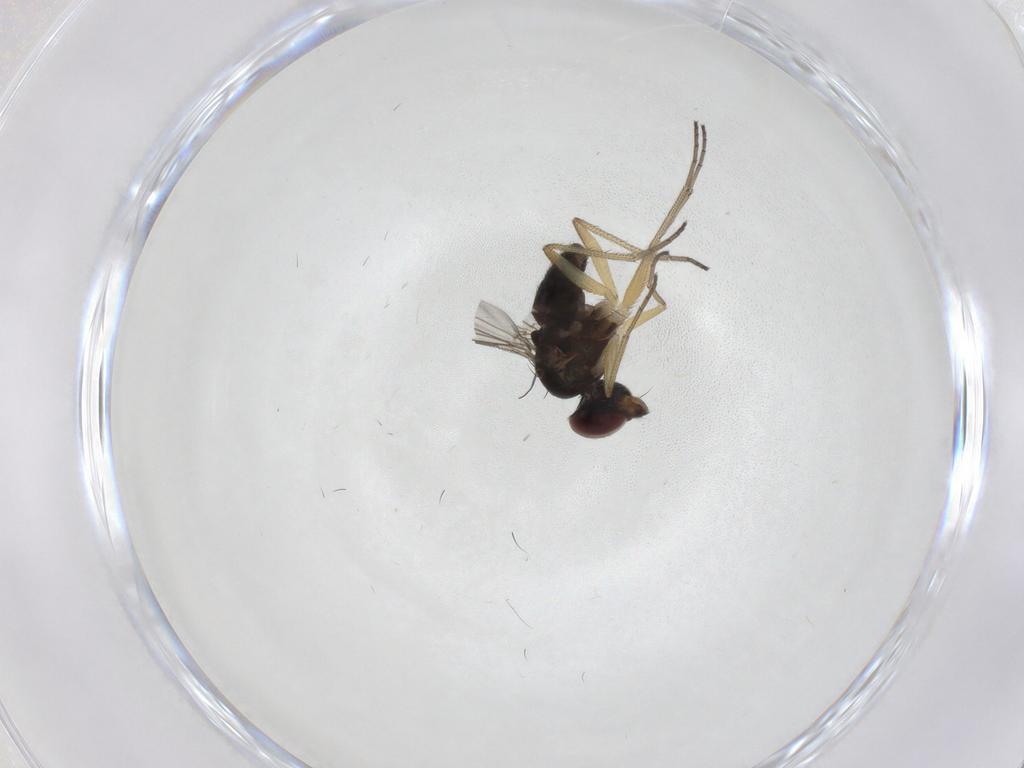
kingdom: Animalia
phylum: Arthropoda
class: Insecta
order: Diptera
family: Dolichopodidae
